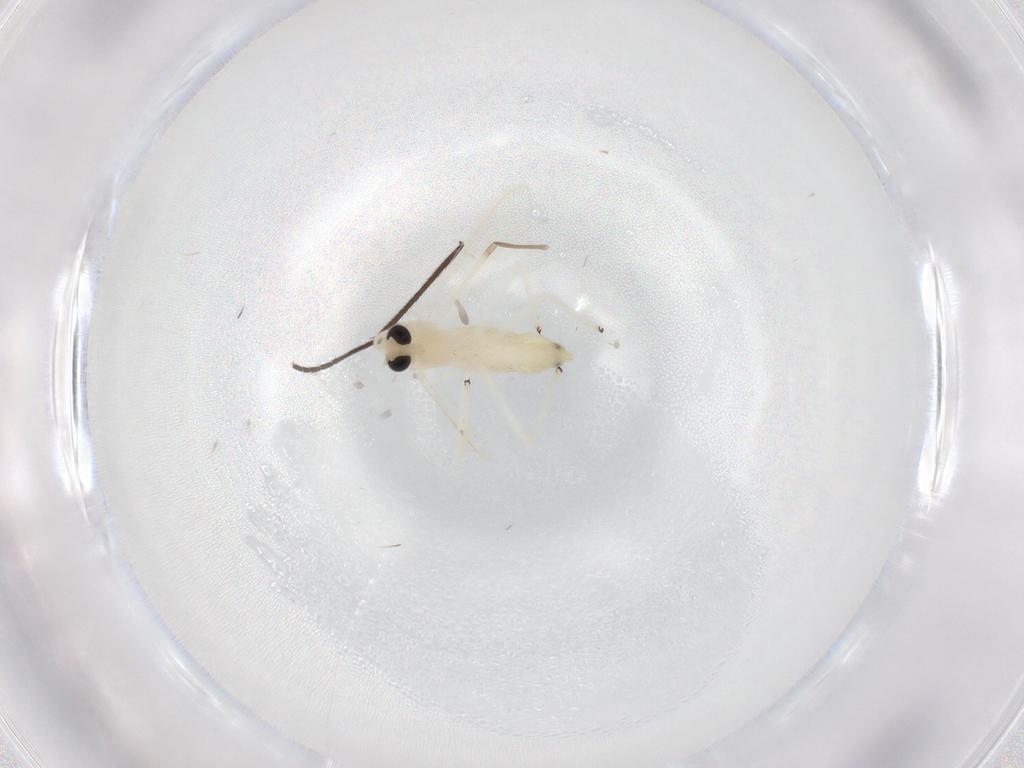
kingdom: Animalia
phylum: Arthropoda
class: Insecta
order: Diptera
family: Chironomidae
